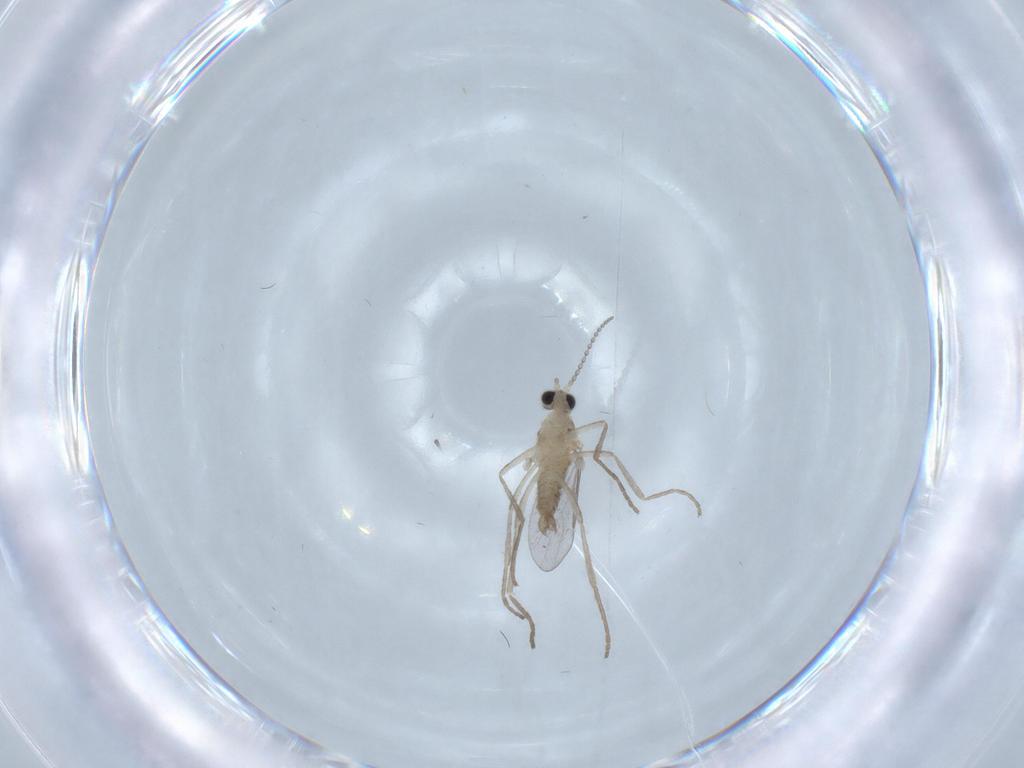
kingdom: Animalia
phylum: Arthropoda
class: Insecta
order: Diptera
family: Cecidomyiidae
